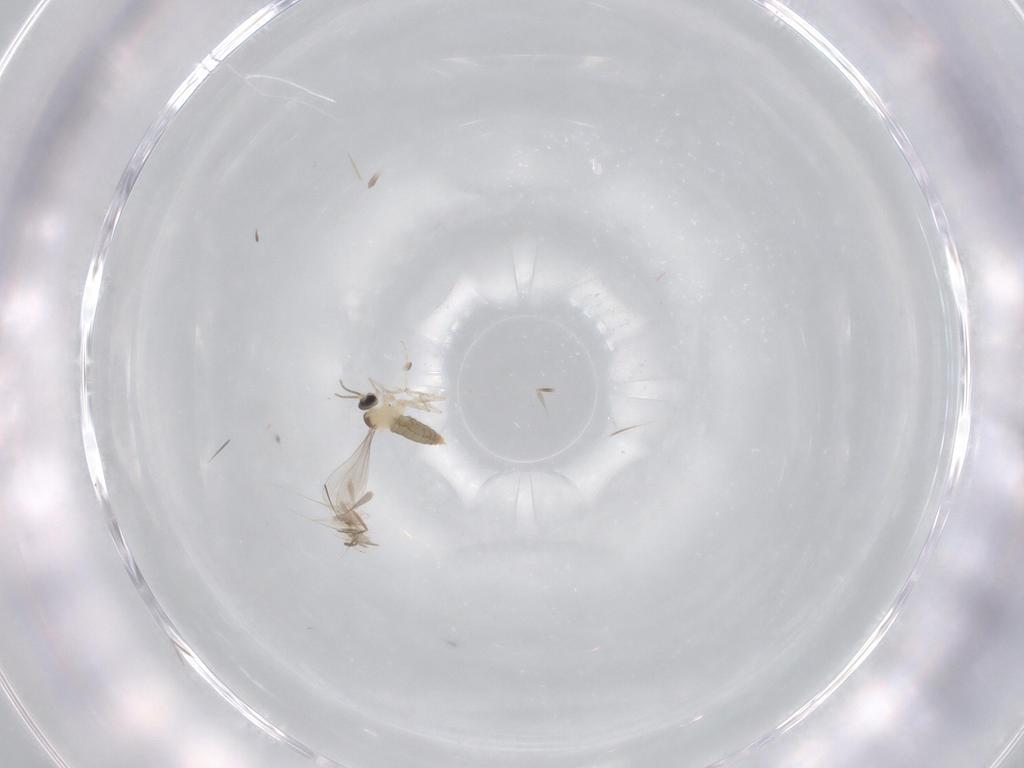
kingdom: Animalia
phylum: Arthropoda
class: Insecta
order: Diptera
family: Cecidomyiidae
